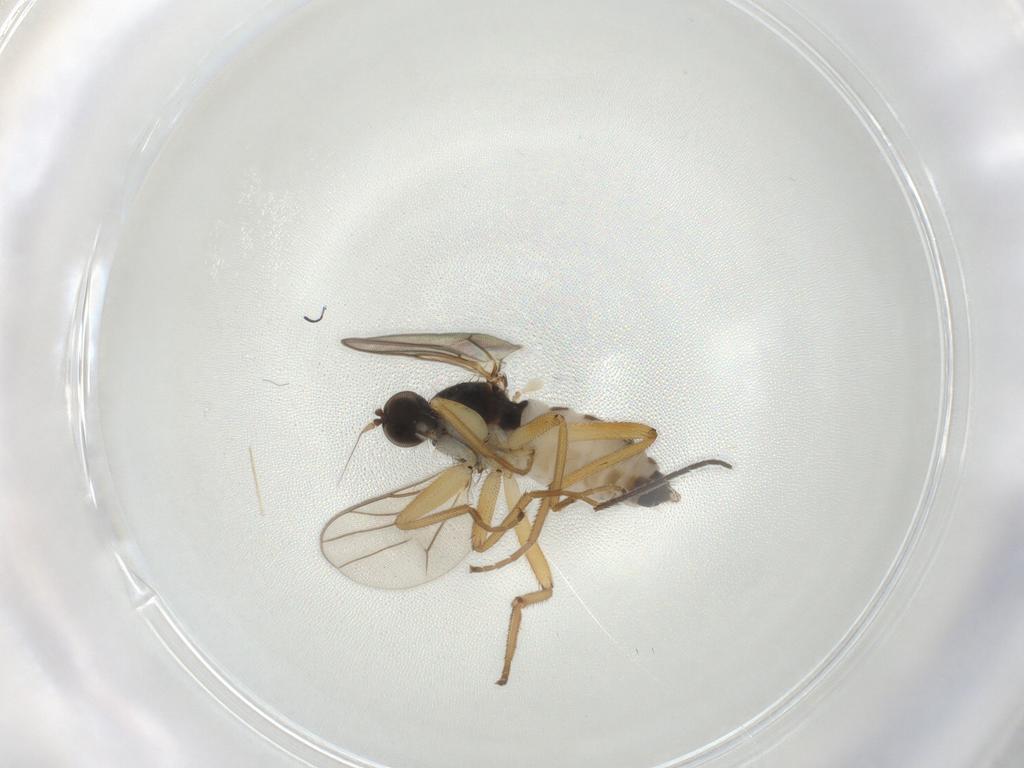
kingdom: Animalia
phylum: Arthropoda
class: Insecta
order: Diptera
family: Hybotidae
